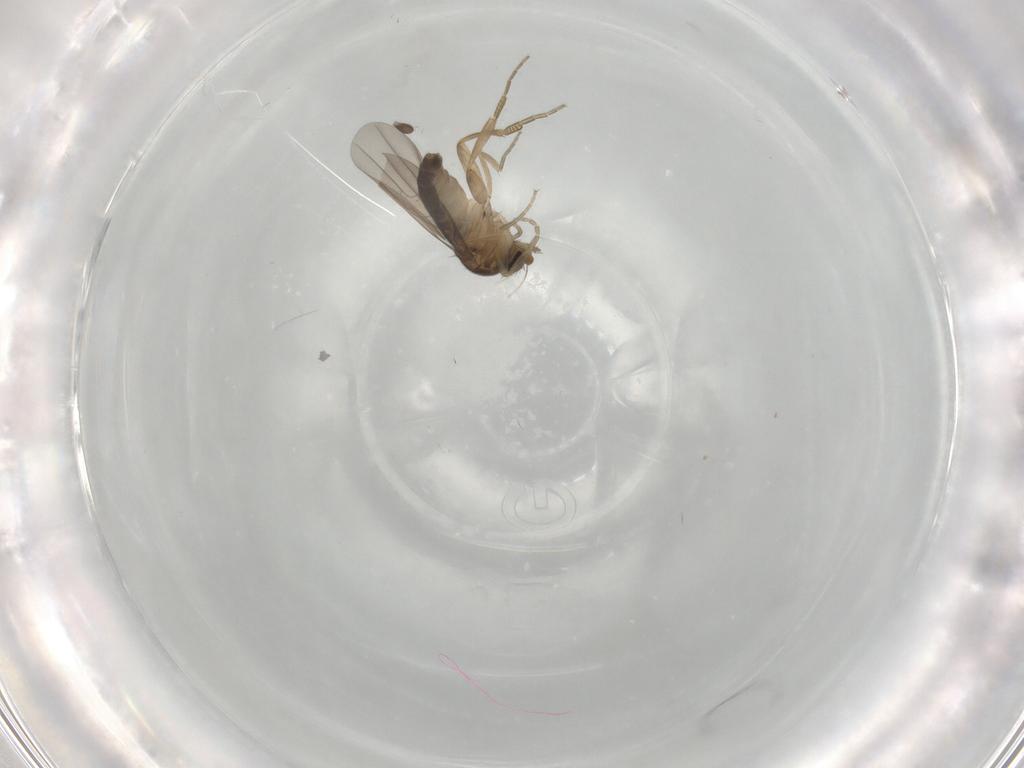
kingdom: Animalia
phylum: Arthropoda
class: Insecta
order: Diptera
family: Phoridae
